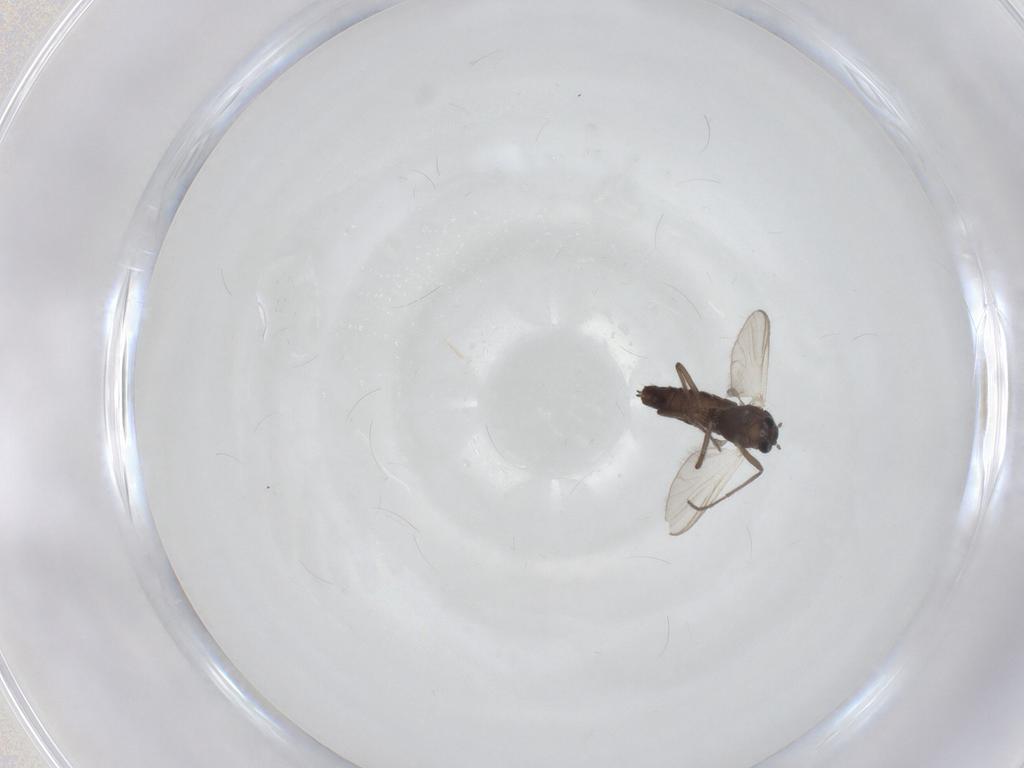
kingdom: Animalia
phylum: Arthropoda
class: Insecta
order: Diptera
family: Chironomidae
